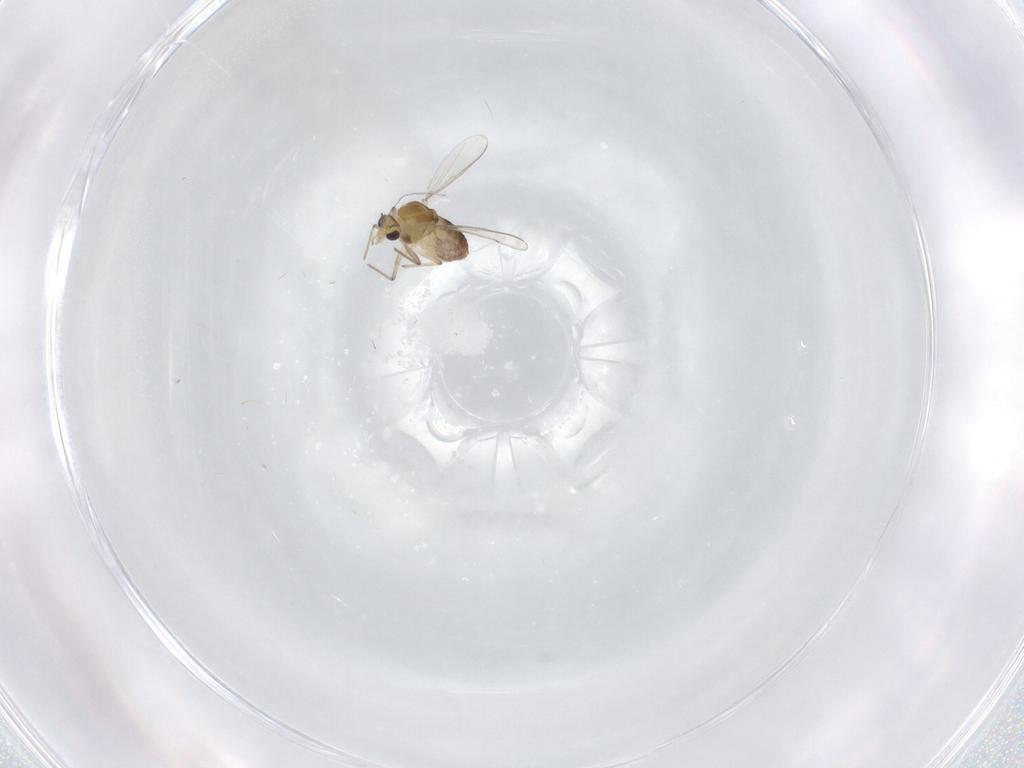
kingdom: Animalia
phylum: Arthropoda
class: Insecta
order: Diptera
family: Chironomidae
